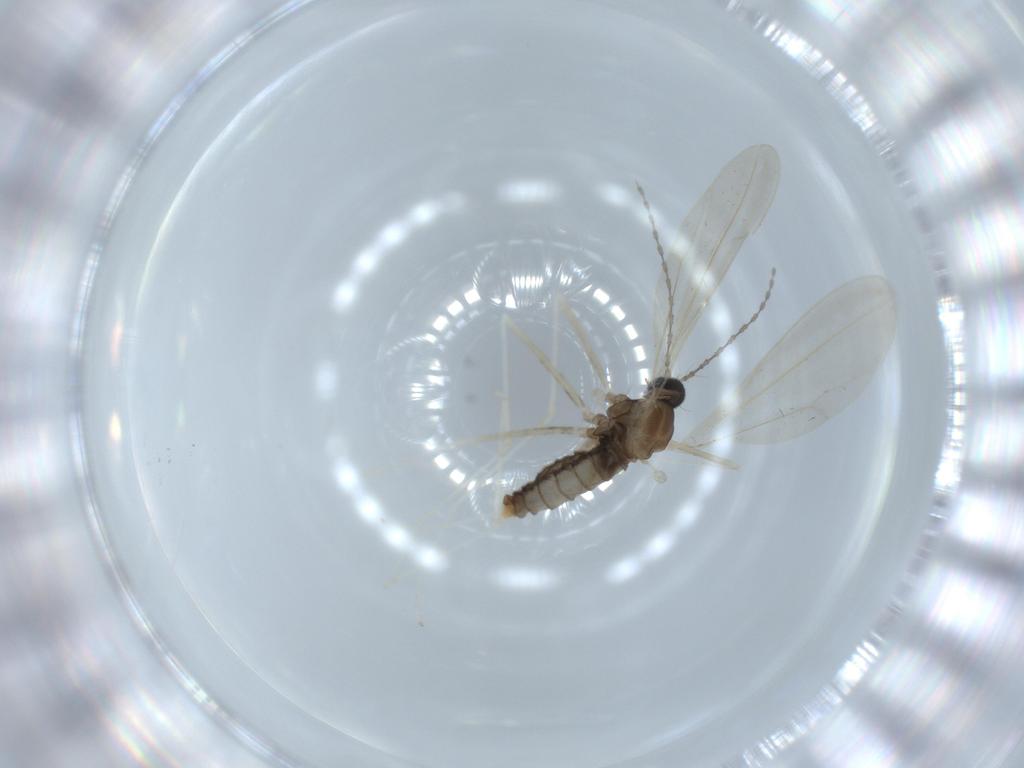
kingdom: Animalia
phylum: Arthropoda
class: Insecta
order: Diptera
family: Cecidomyiidae
